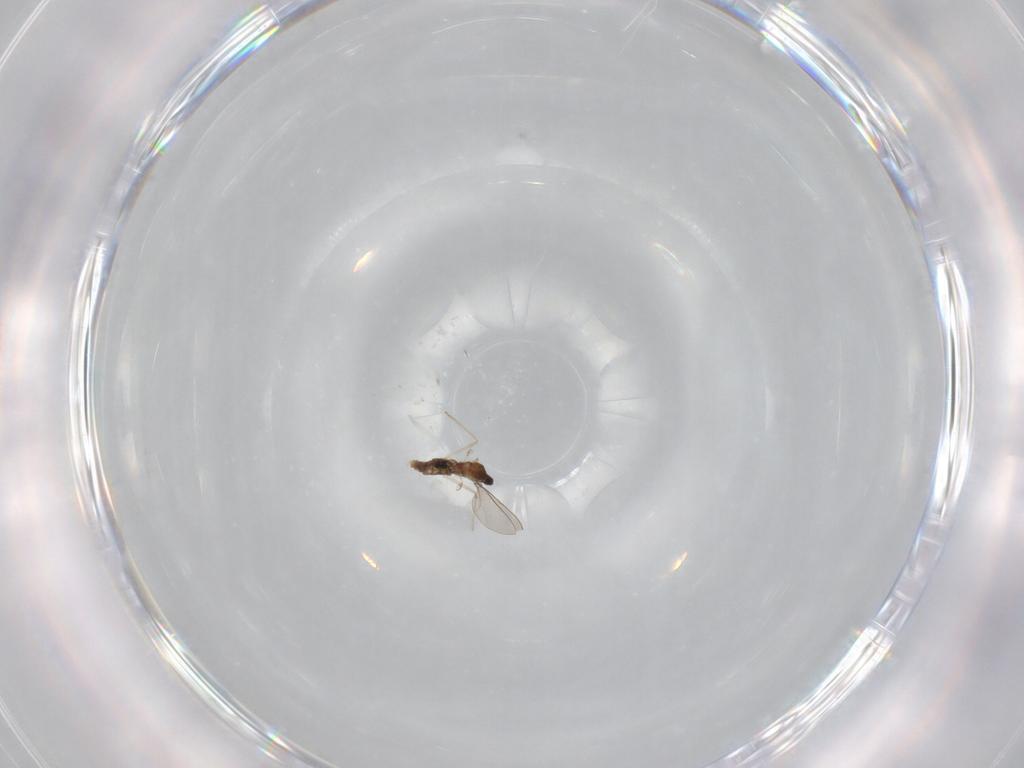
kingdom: Animalia
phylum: Arthropoda
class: Insecta
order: Diptera
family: Chironomidae
